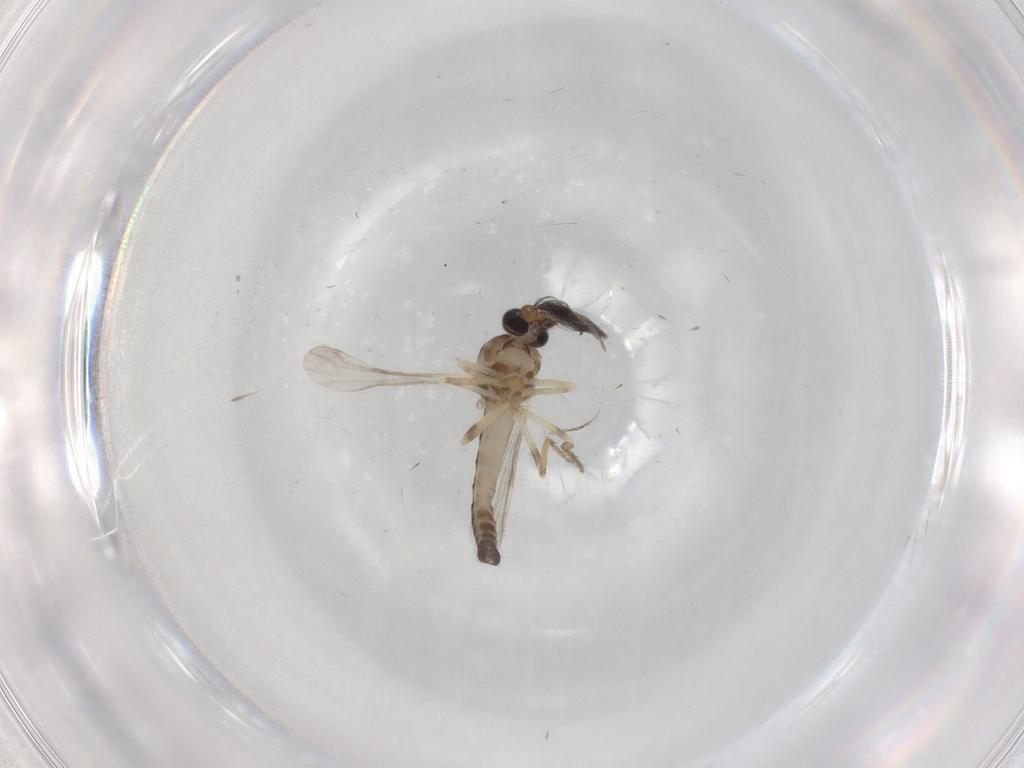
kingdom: Animalia
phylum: Arthropoda
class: Insecta
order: Diptera
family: Ceratopogonidae
